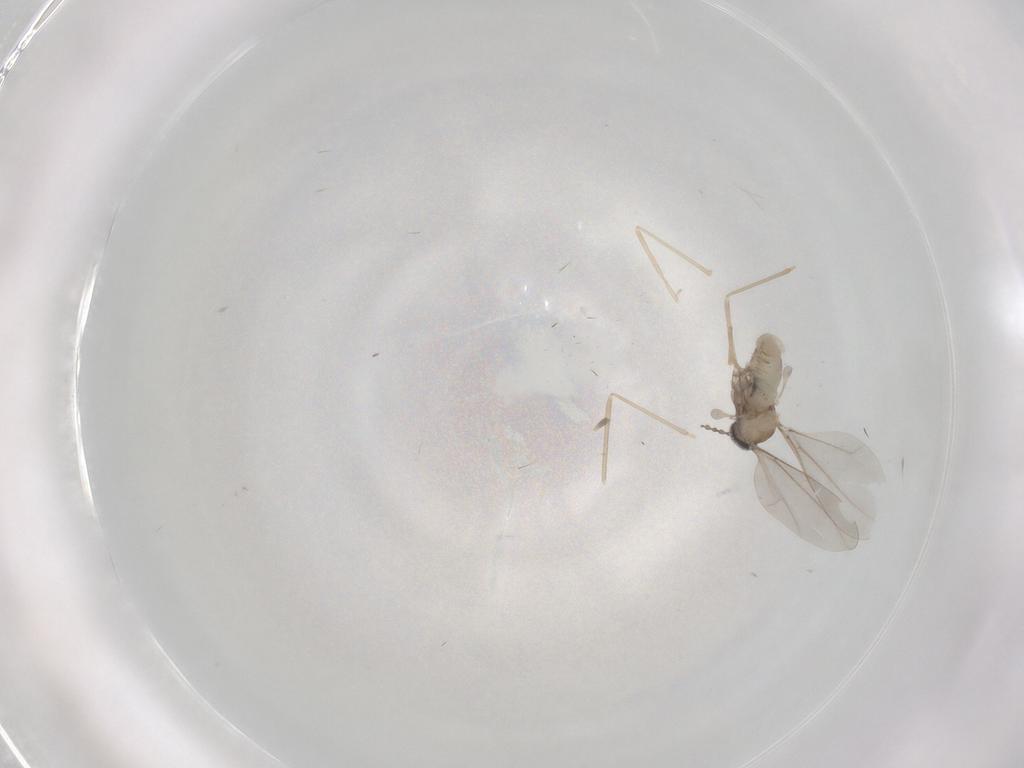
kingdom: Animalia
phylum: Arthropoda
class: Insecta
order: Diptera
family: Cecidomyiidae
